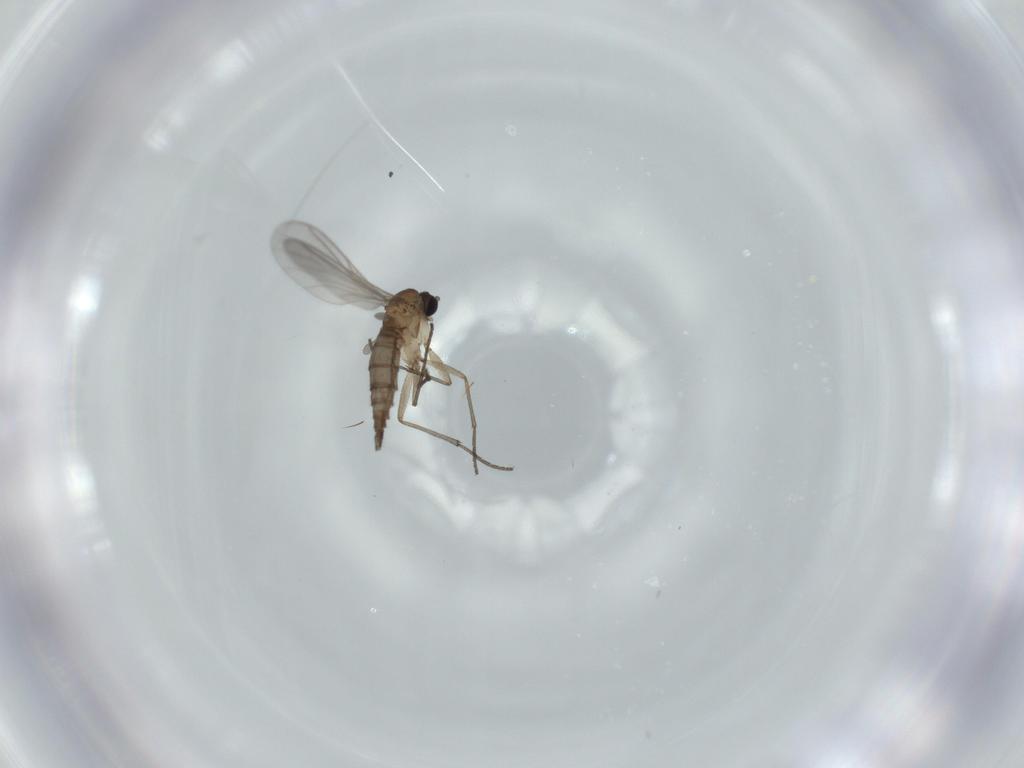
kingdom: Animalia
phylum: Arthropoda
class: Insecta
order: Diptera
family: Sciaridae
